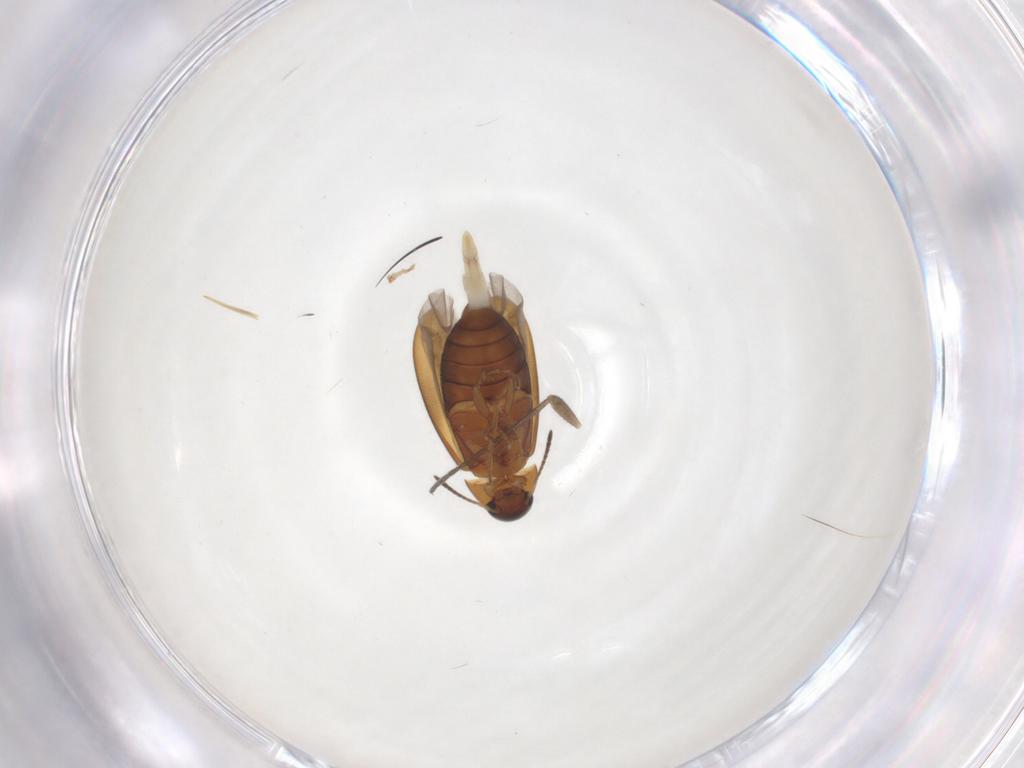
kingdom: Animalia
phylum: Arthropoda
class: Insecta
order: Coleoptera
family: Scraptiidae
